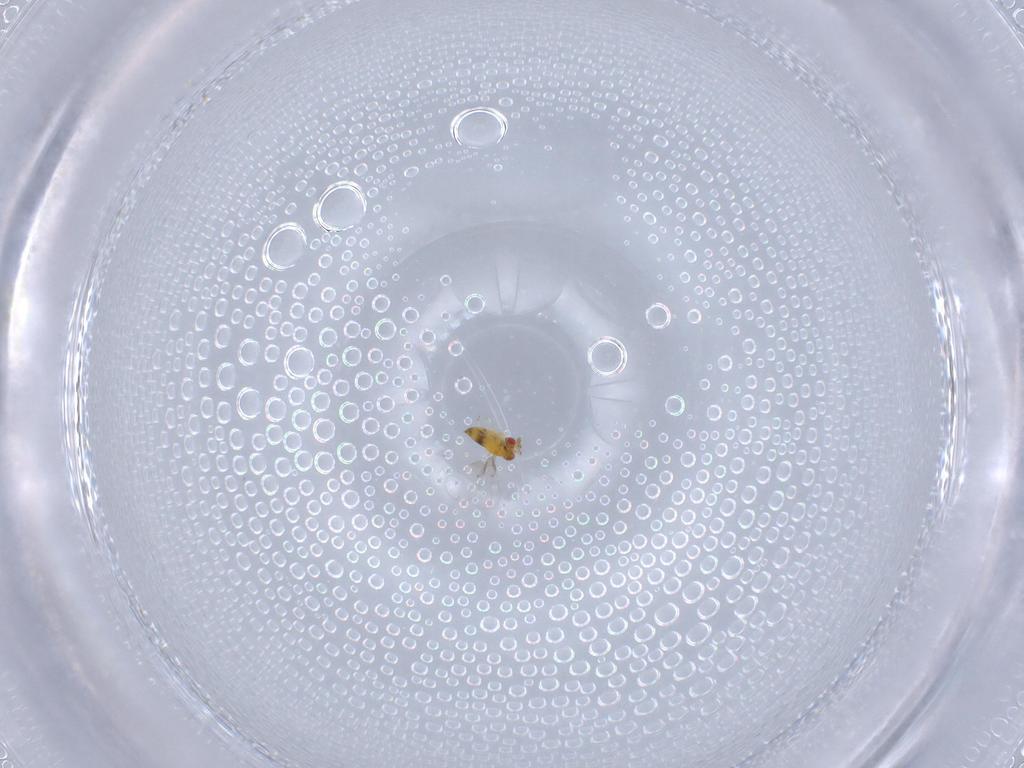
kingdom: Animalia
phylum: Arthropoda
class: Insecta
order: Hymenoptera
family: Trichogrammatidae
